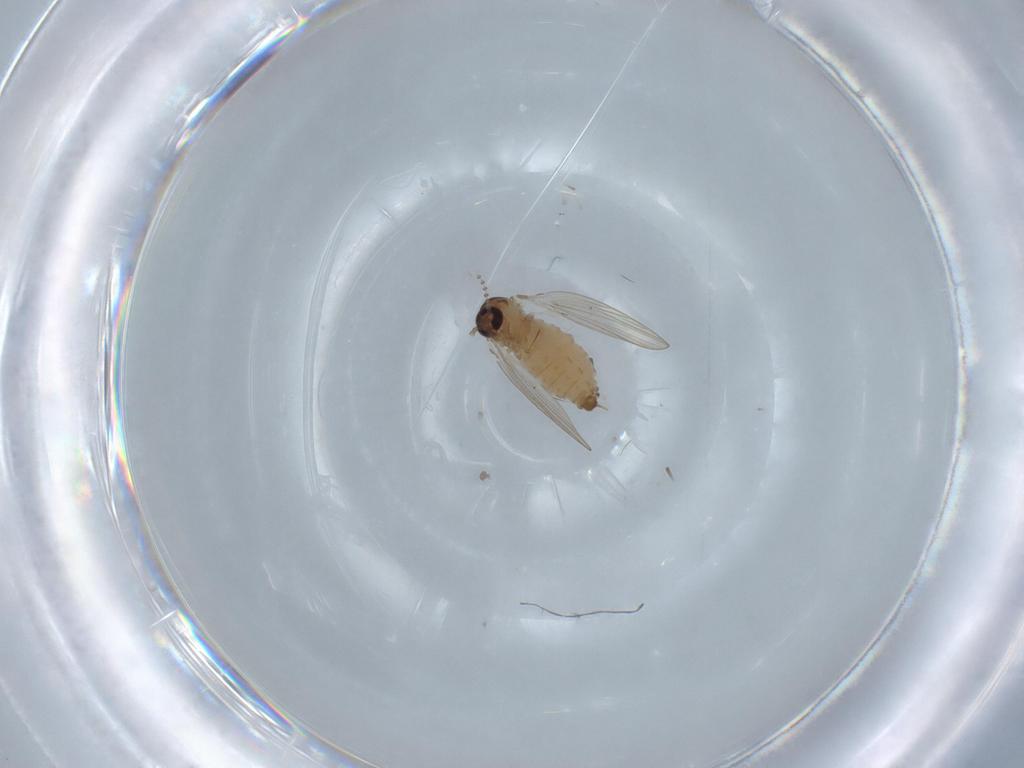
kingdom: Animalia
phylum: Arthropoda
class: Insecta
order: Diptera
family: Psychodidae
